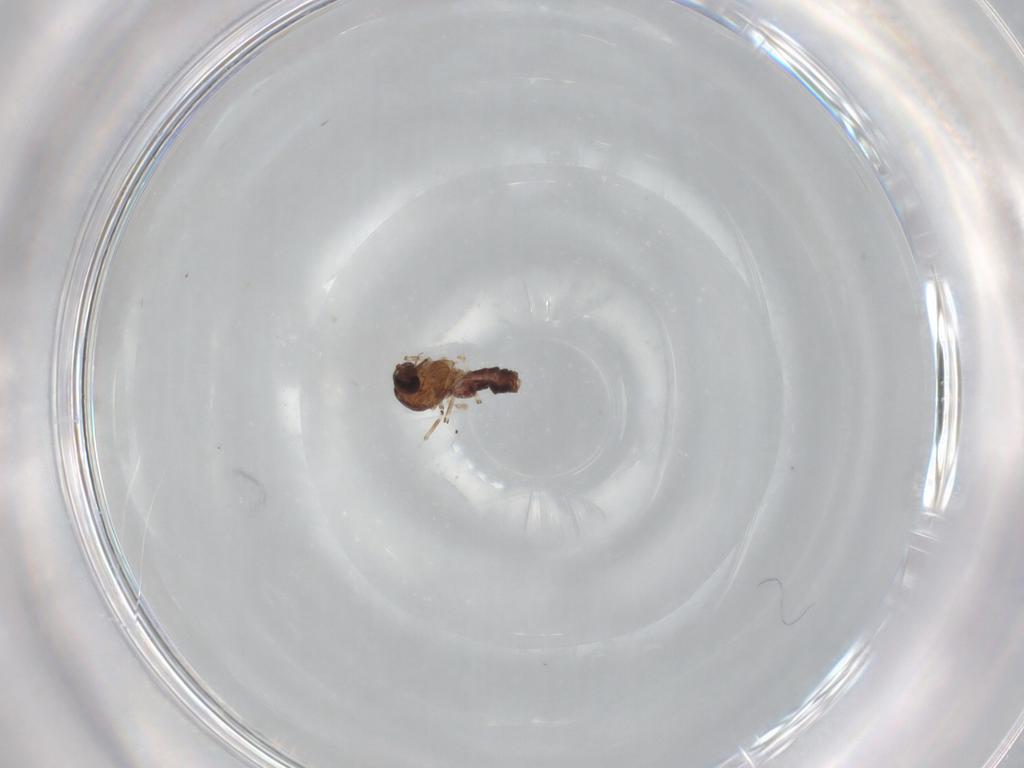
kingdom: Animalia
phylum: Arthropoda
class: Insecta
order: Diptera
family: Ceratopogonidae
